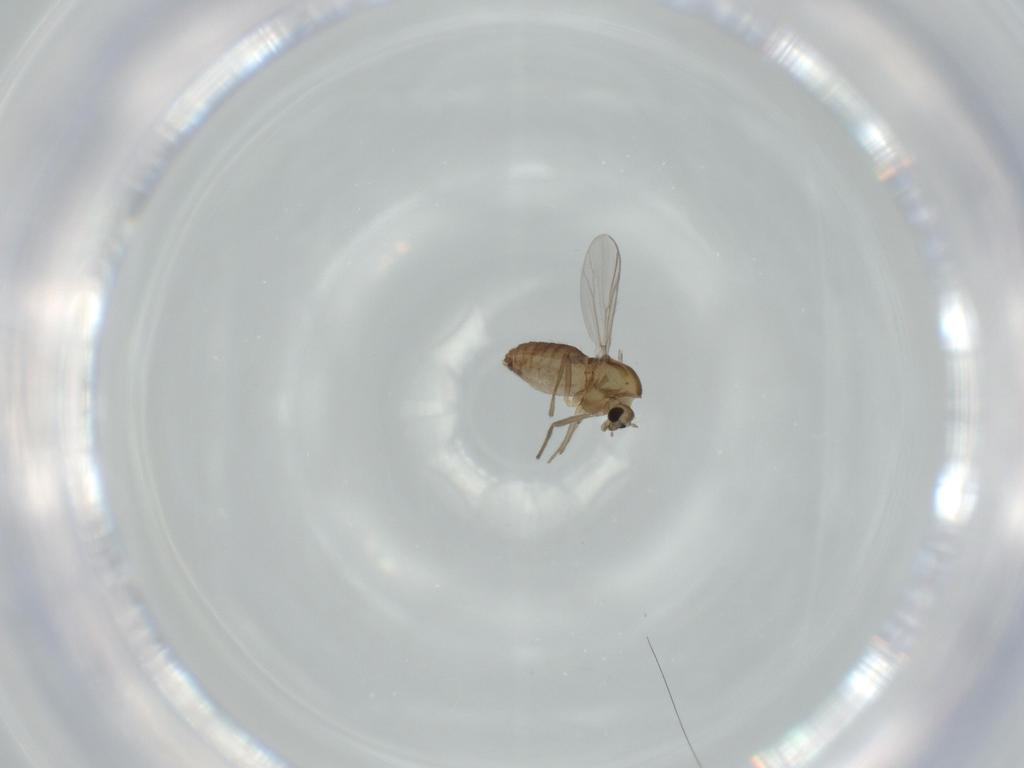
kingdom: Animalia
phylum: Arthropoda
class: Insecta
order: Diptera
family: Chironomidae
